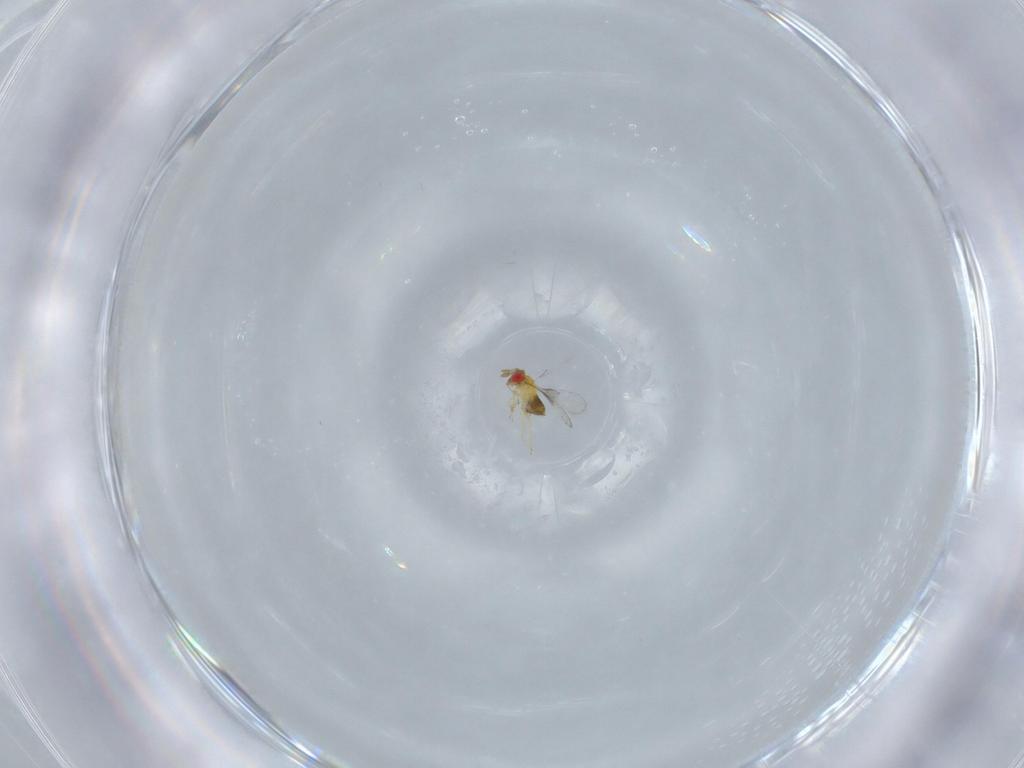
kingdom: Animalia
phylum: Arthropoda
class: Insecta
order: Hymenoptera
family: Trichogrammatidae
